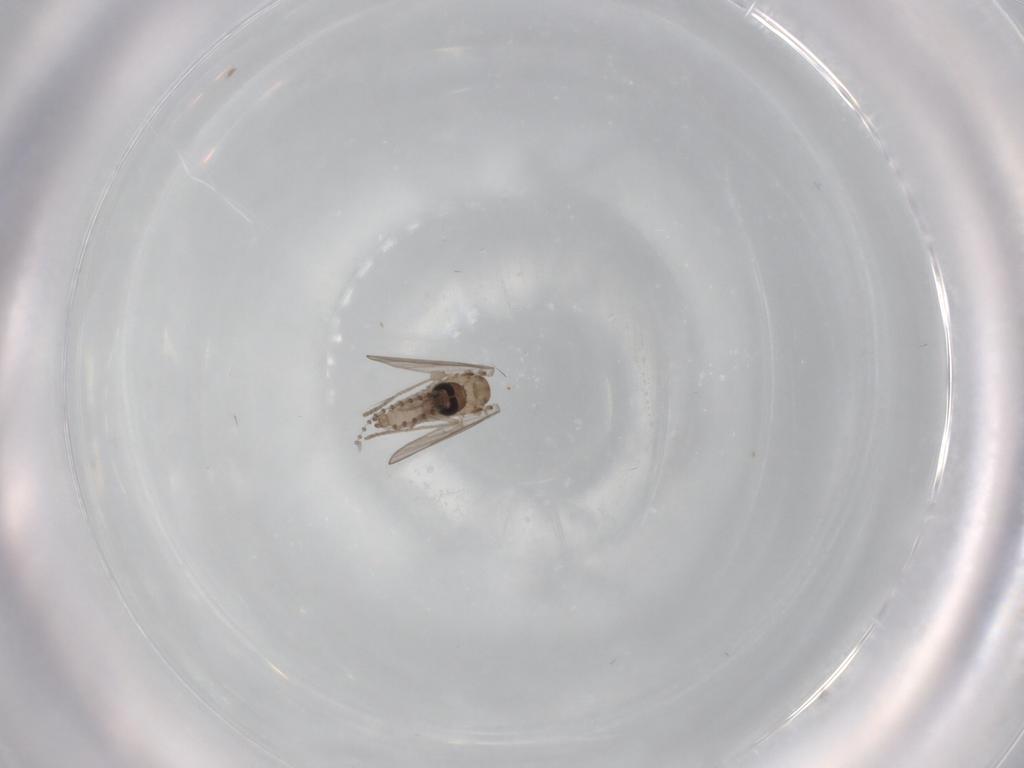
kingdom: Animalia
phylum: Arthropoda
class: Insecta
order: Diptera
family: Psychodidae
